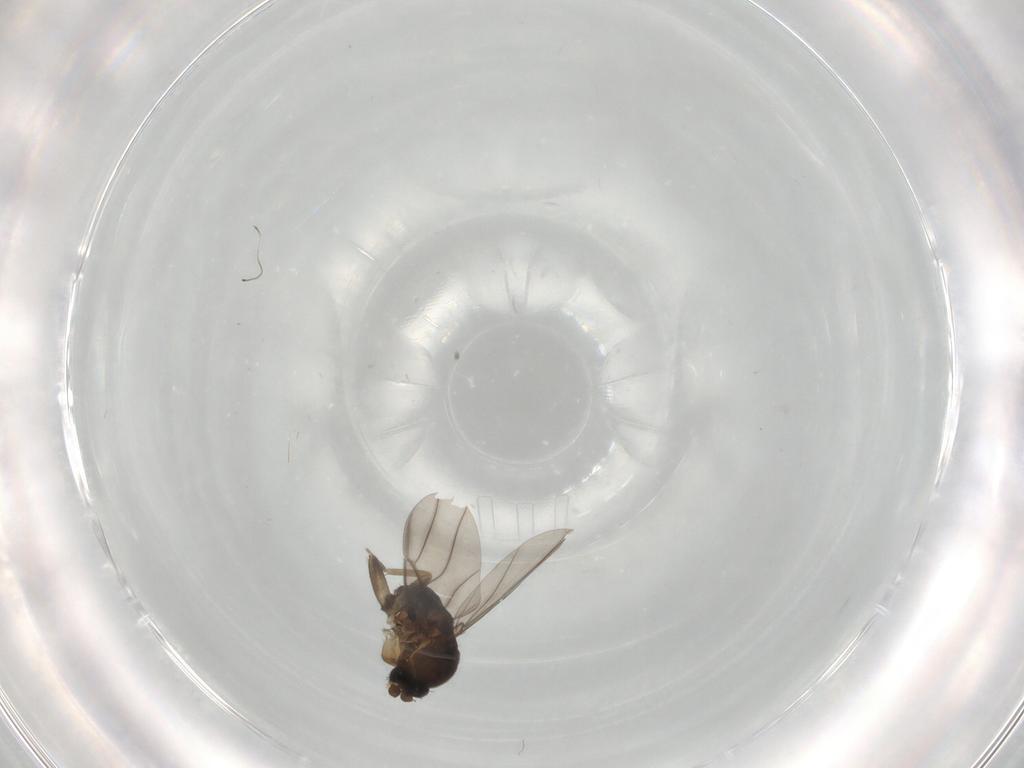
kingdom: Animalia
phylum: Arthropoda
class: Insecta
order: Diptera
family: Phoridae
